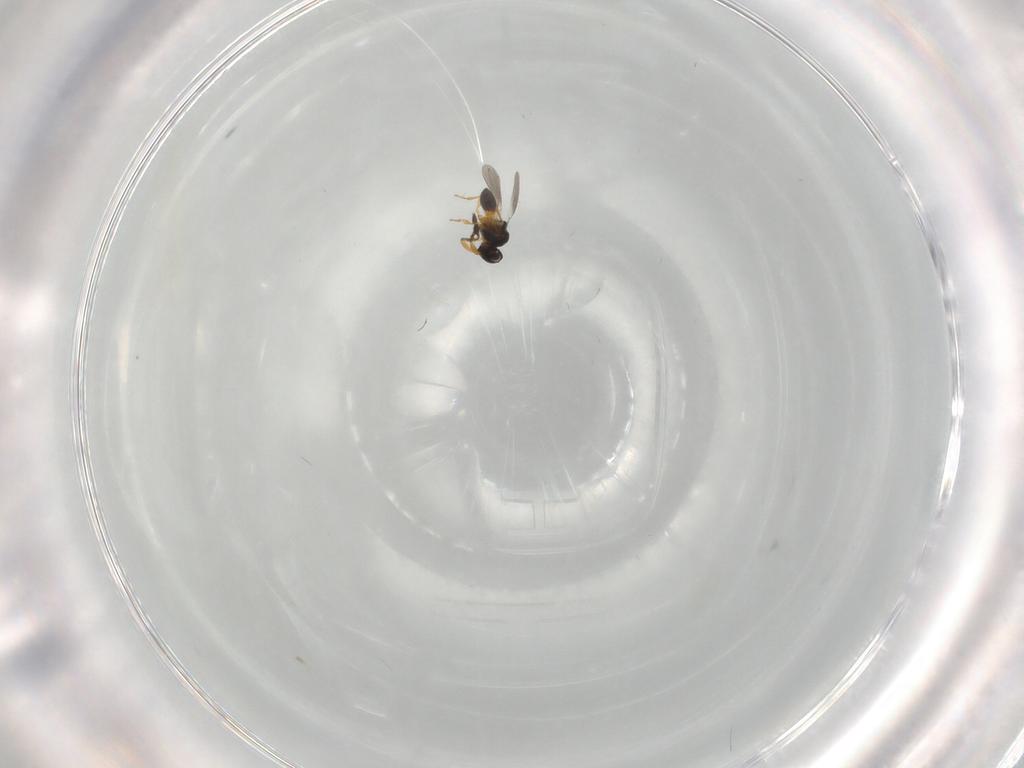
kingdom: Animalia
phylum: Arthropoda
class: Insecta
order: Hymenoptera
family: Platygastridae
